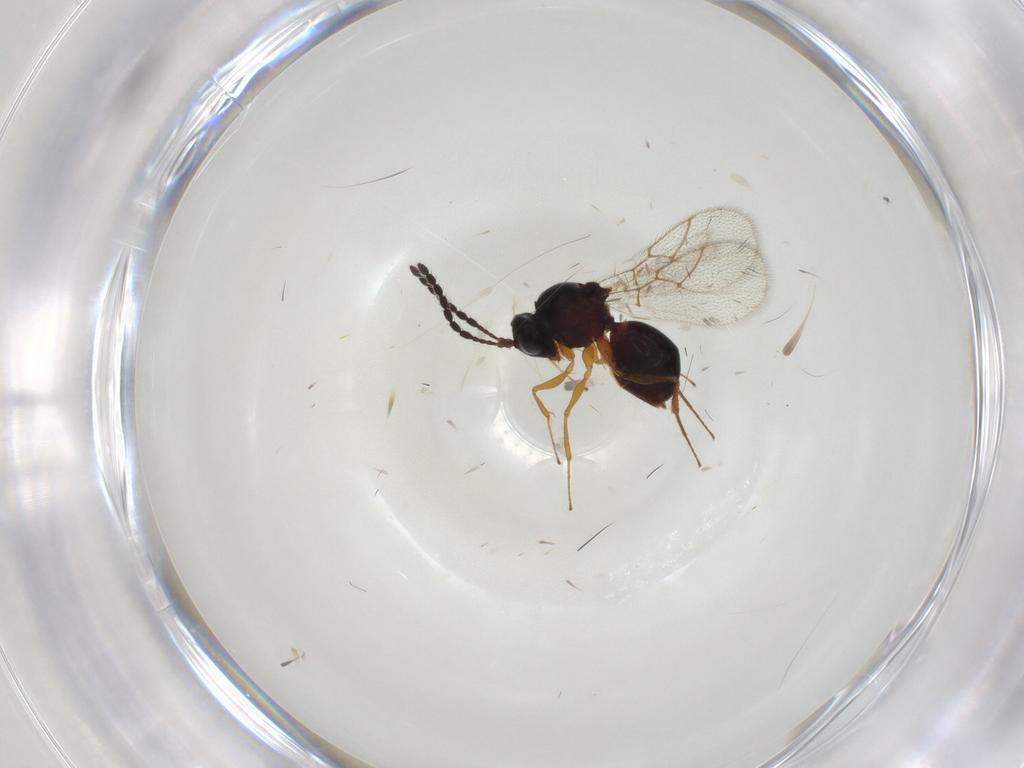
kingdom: Animalia
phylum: Arthropoda
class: Insecta
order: Hymenoptera
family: Figitidae
